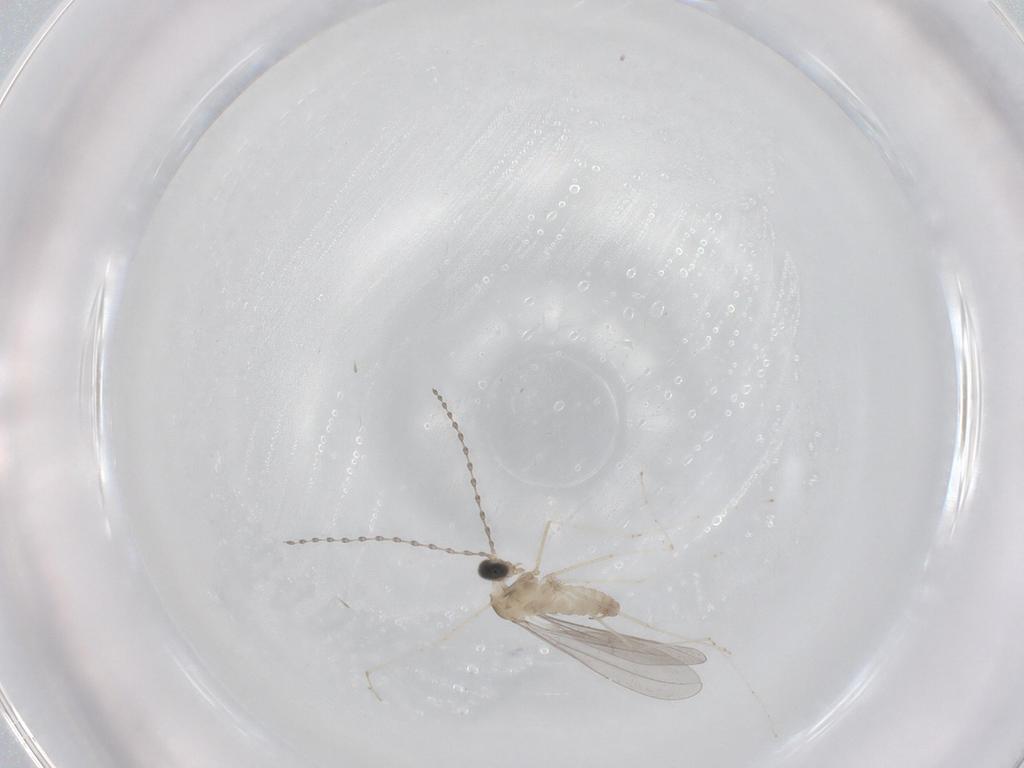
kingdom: Animalia
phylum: Arthropoda
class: Insecta
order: Diptera
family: Cecidomyiidae
